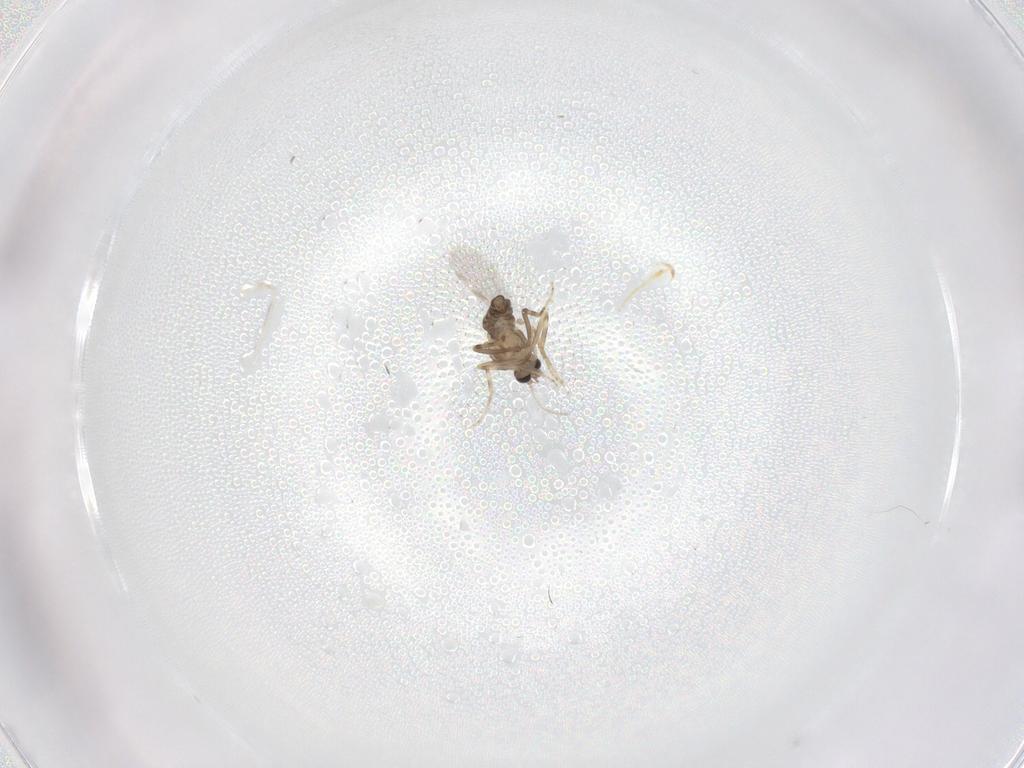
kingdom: Animalia
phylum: Arthropoda
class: Insecta
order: Diptera
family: Ceratopogonidae
